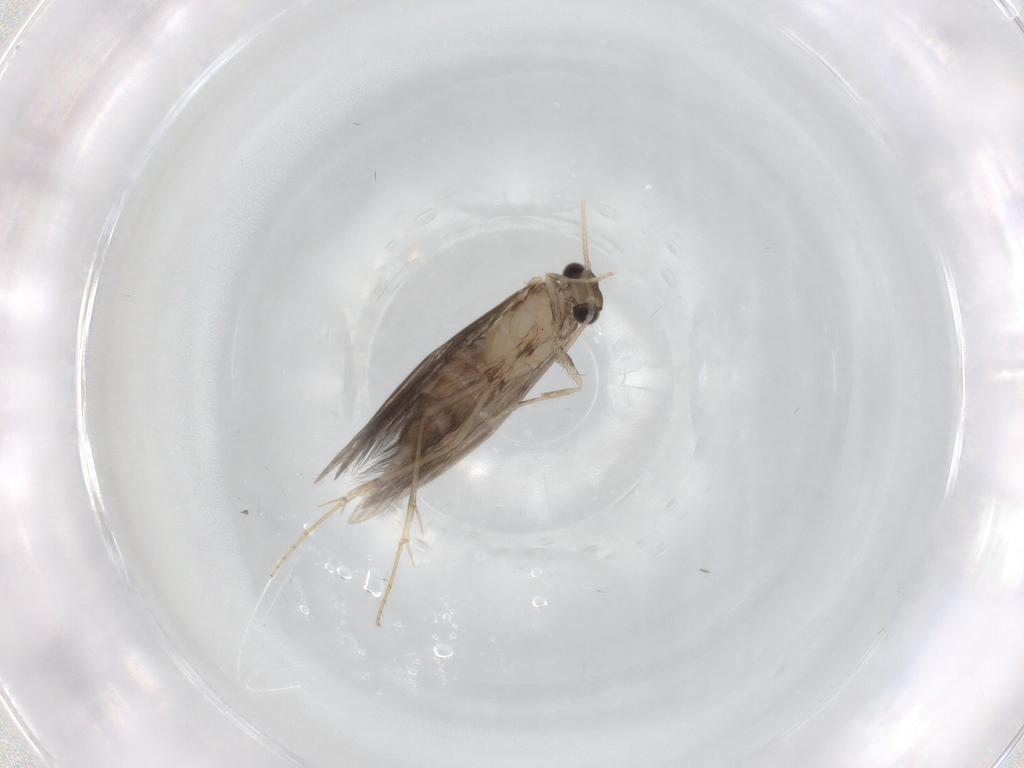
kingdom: Animalia
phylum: Arthropoda
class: Insecta
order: Trichoptera
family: Hydroptilidae
